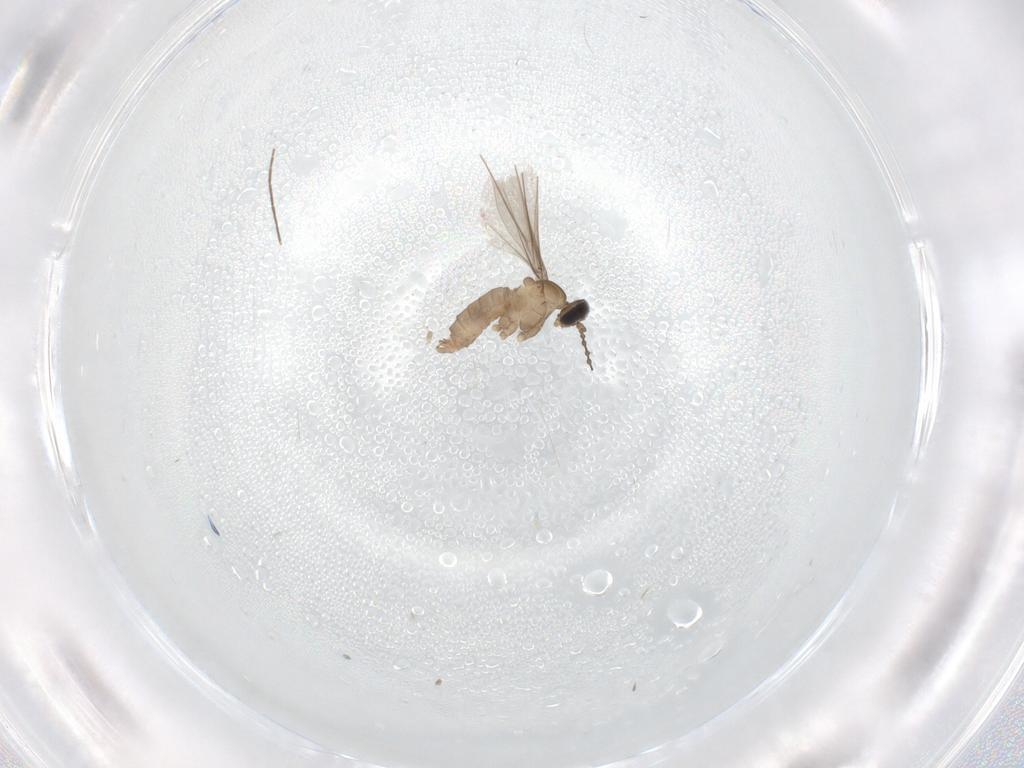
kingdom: Animalia
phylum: Arthropoda
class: Insecta
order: Diptera
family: Cecidomyiidae
